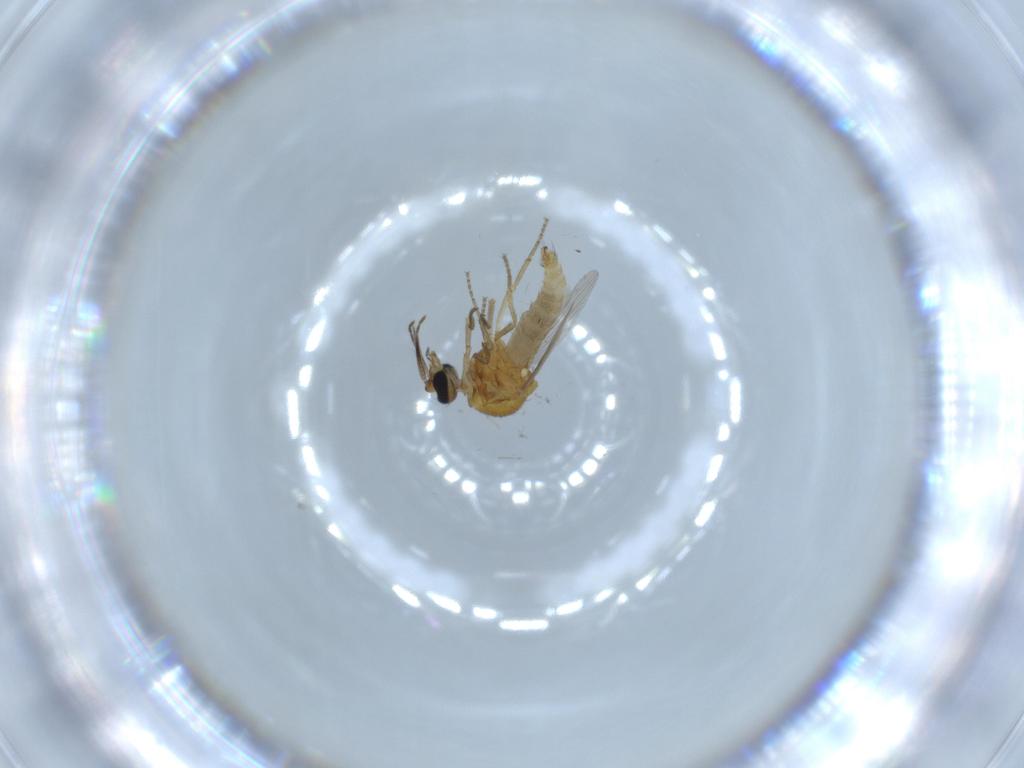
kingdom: Animalia
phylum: Arthropoda
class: Insecta
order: Diptera
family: Ceratopogonidae
